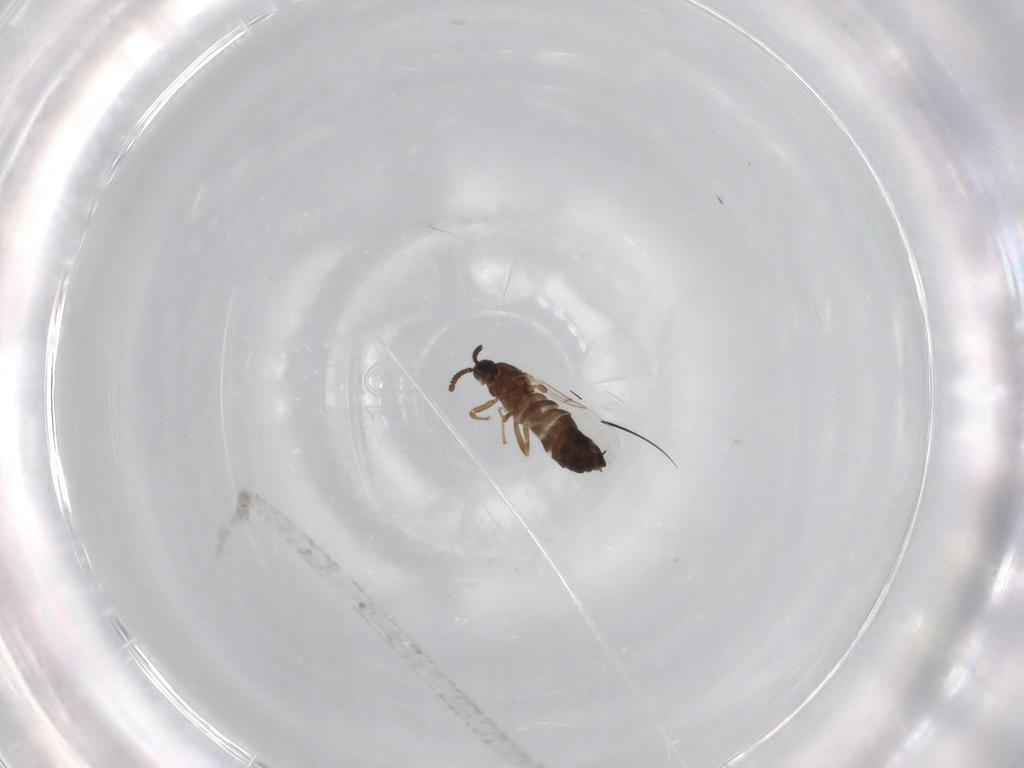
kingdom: Animalia
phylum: Arthropoda
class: Insecta
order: Diptera
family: Scatopsidae
